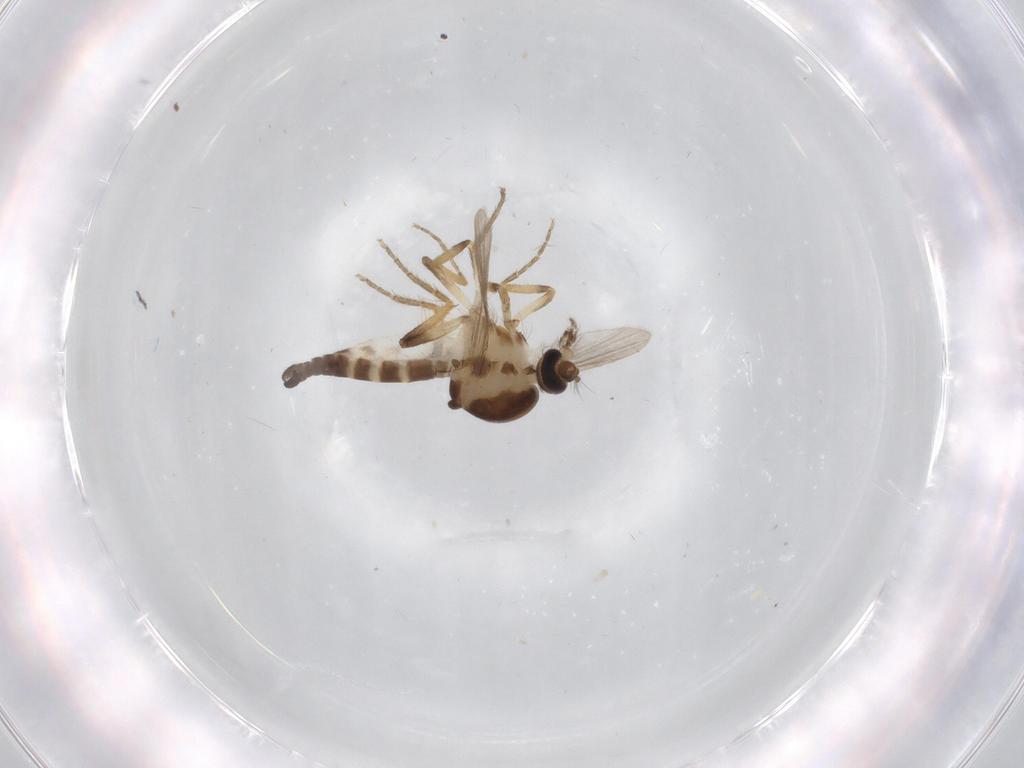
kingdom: Animalia
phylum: Arthropoda
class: Insecta
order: Diptera
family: Ceratopogonidae
